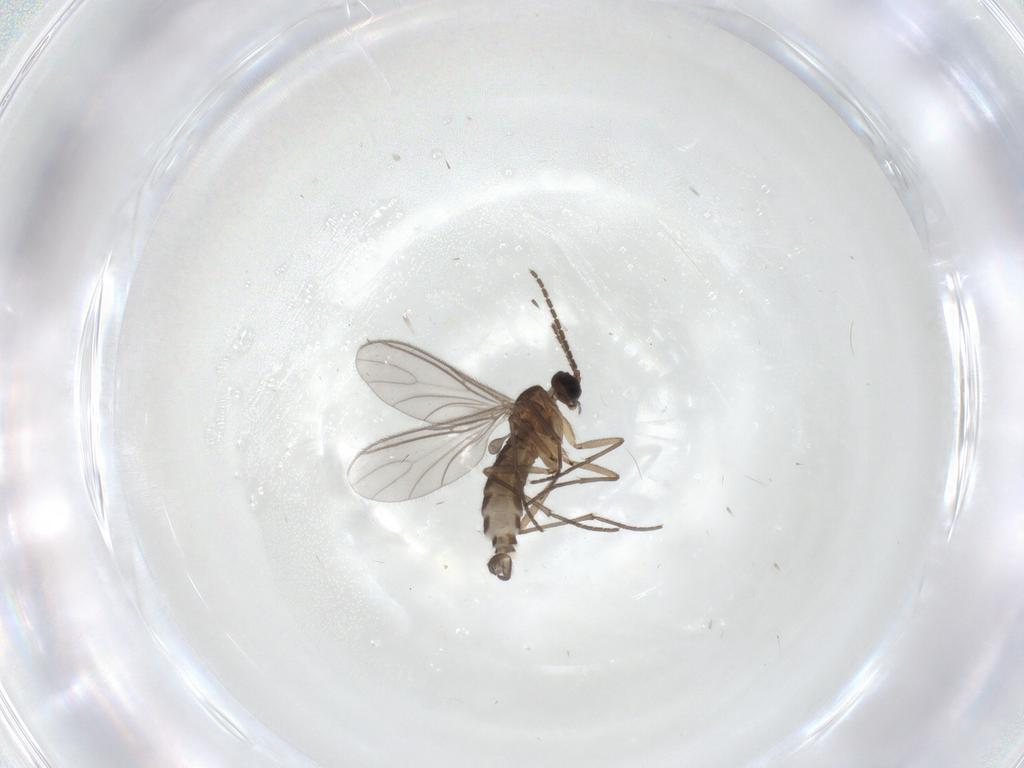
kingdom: Animalia
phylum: Arthropoda
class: Insecta
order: Diptera
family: Sciaridae
